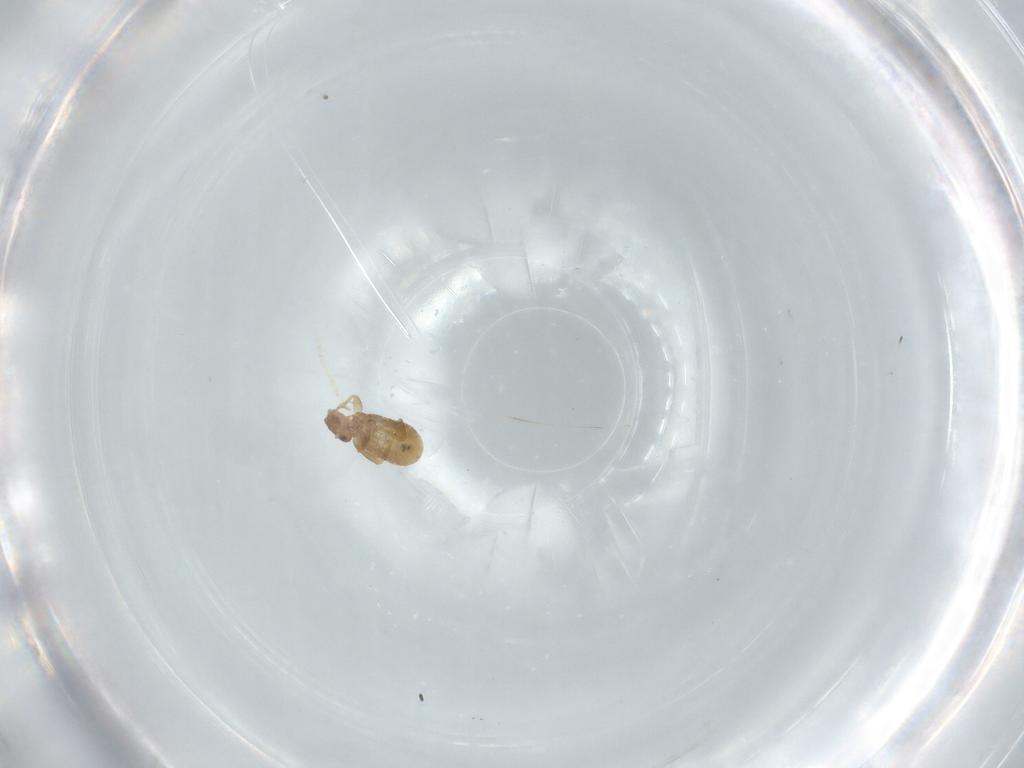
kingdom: Animalia
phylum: Arthropoda
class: Insecta
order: Psocodea
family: Liposcelididae
